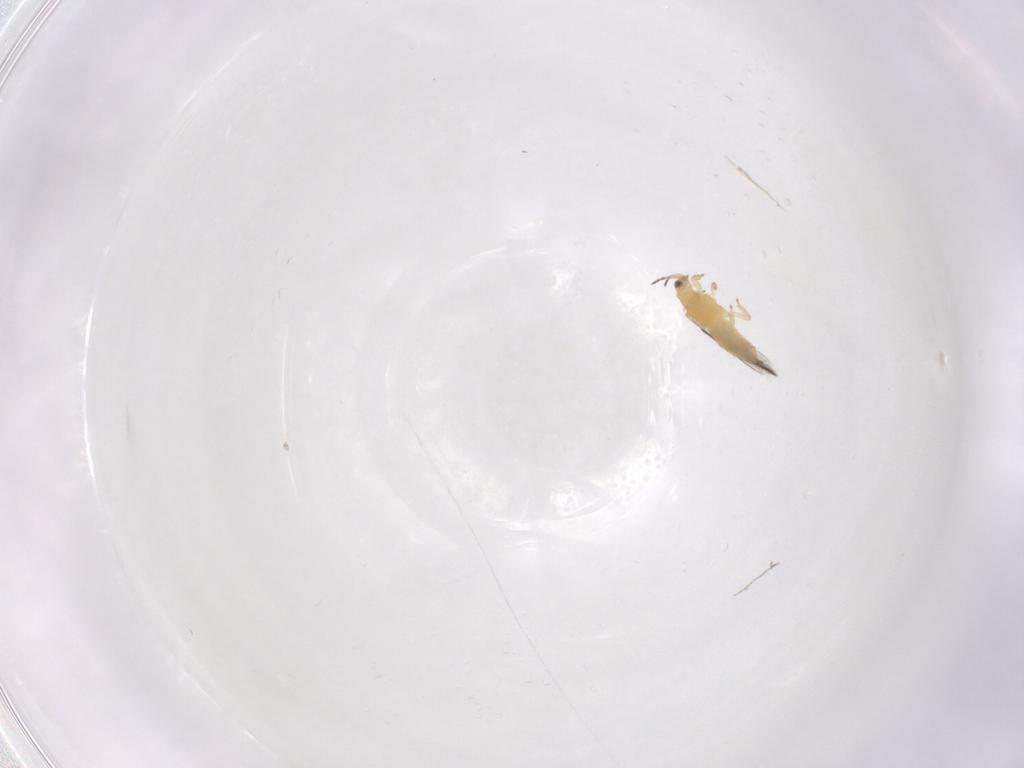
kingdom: Animalia
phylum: Arthropoda
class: Insecta
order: Thysanoptera
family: Thripidae
